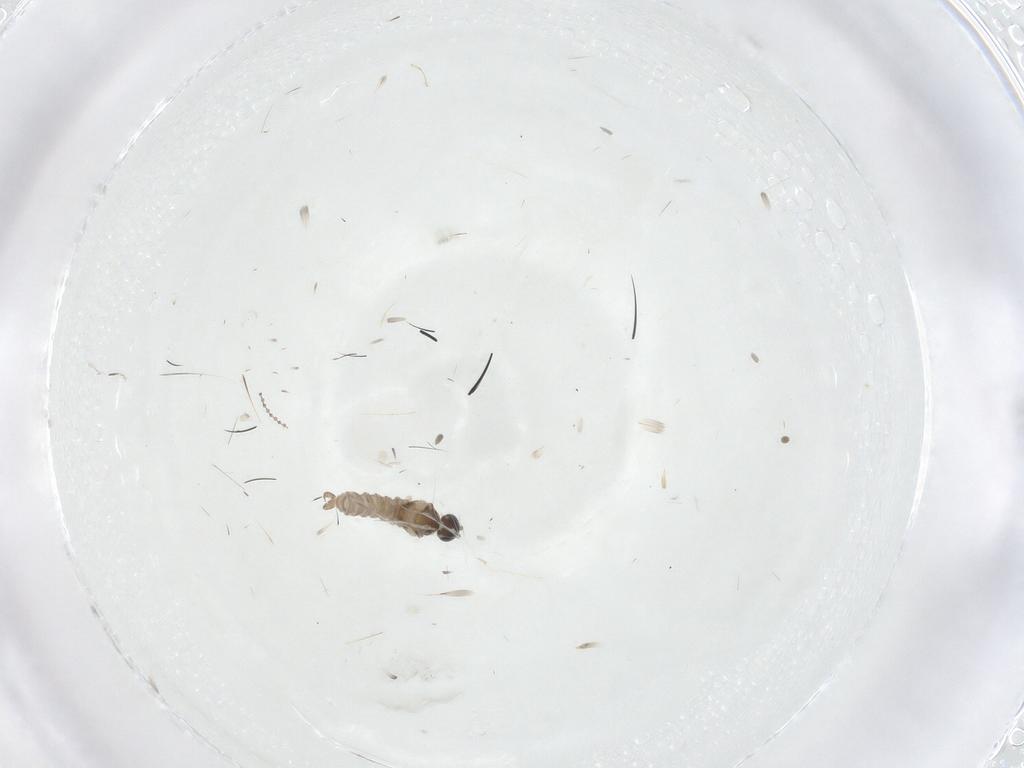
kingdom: Animalia
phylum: Arthropoda
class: Insecta
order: Diptera
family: Cecidomyiidae
